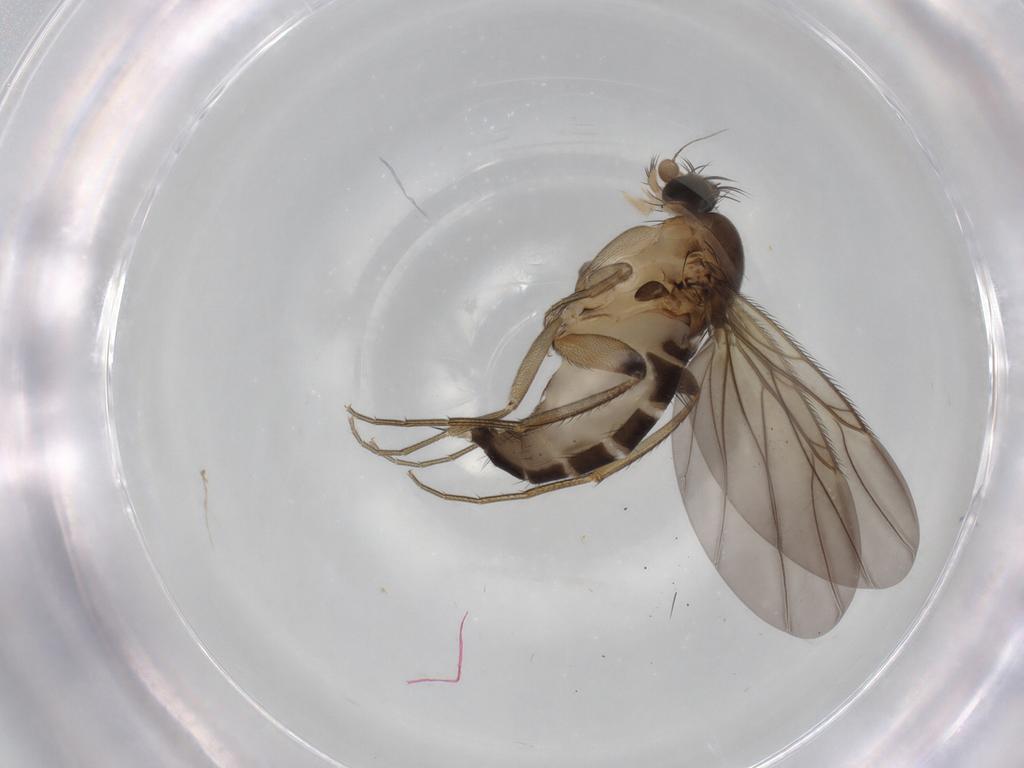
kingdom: Animalia
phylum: Arthropoda
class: Insecta
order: Diptera
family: Phoridae
